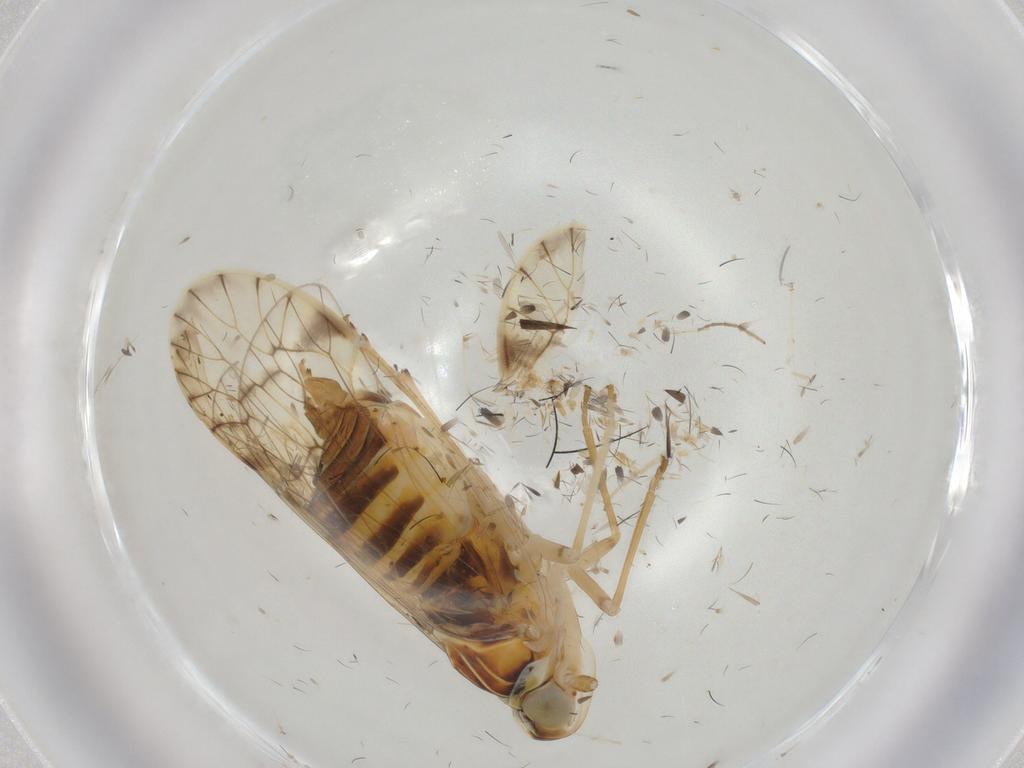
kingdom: Animalia
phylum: Arthropoda
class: Insecta
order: Hemiptera
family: Kinnaridae
